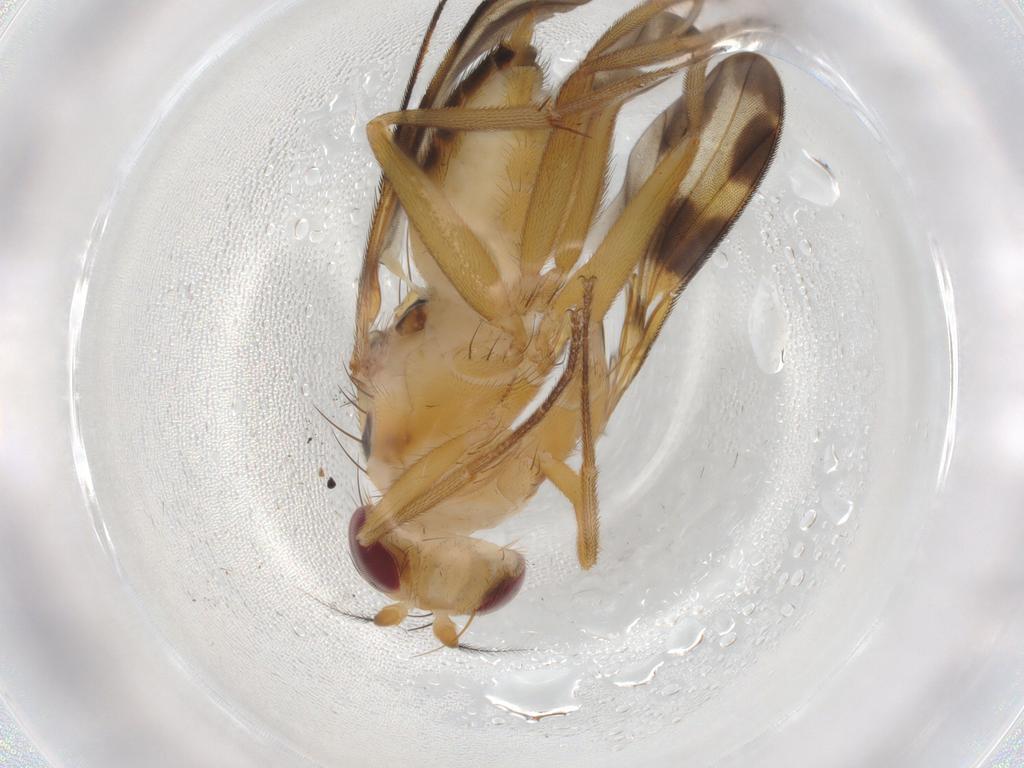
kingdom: Animalia
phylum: Arthropoda
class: Insecta
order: Diptera
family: Clusiidae
